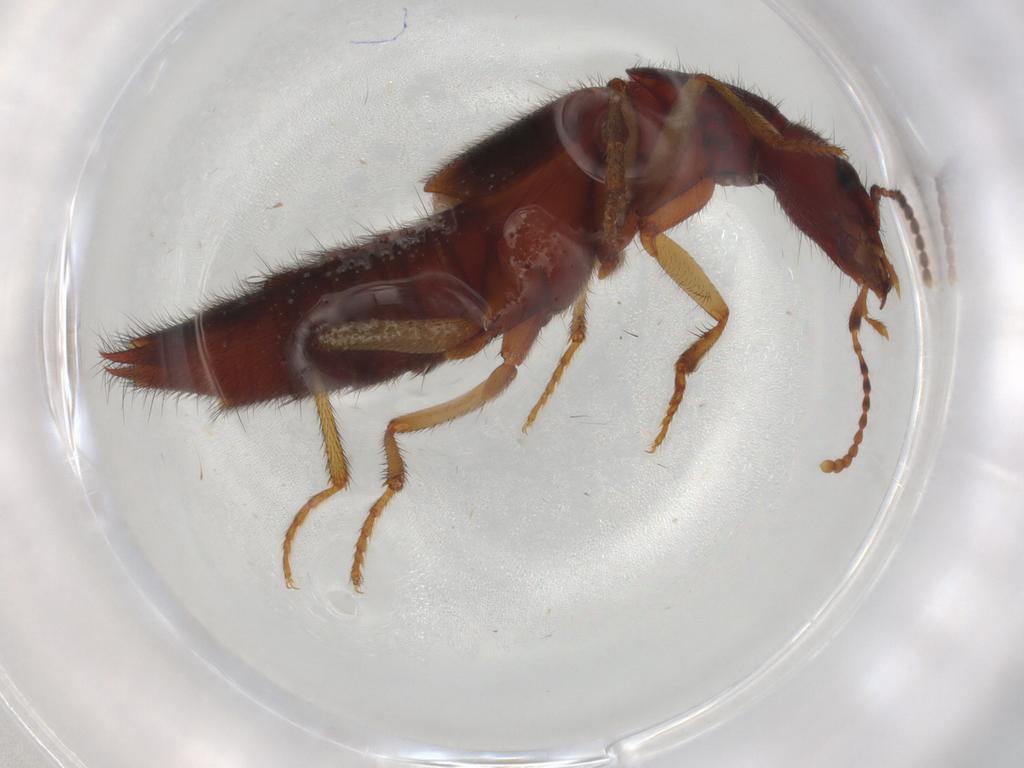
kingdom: Animalia
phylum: Arthropoda
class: Insecta
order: Coleoptera
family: Staphylinidae
